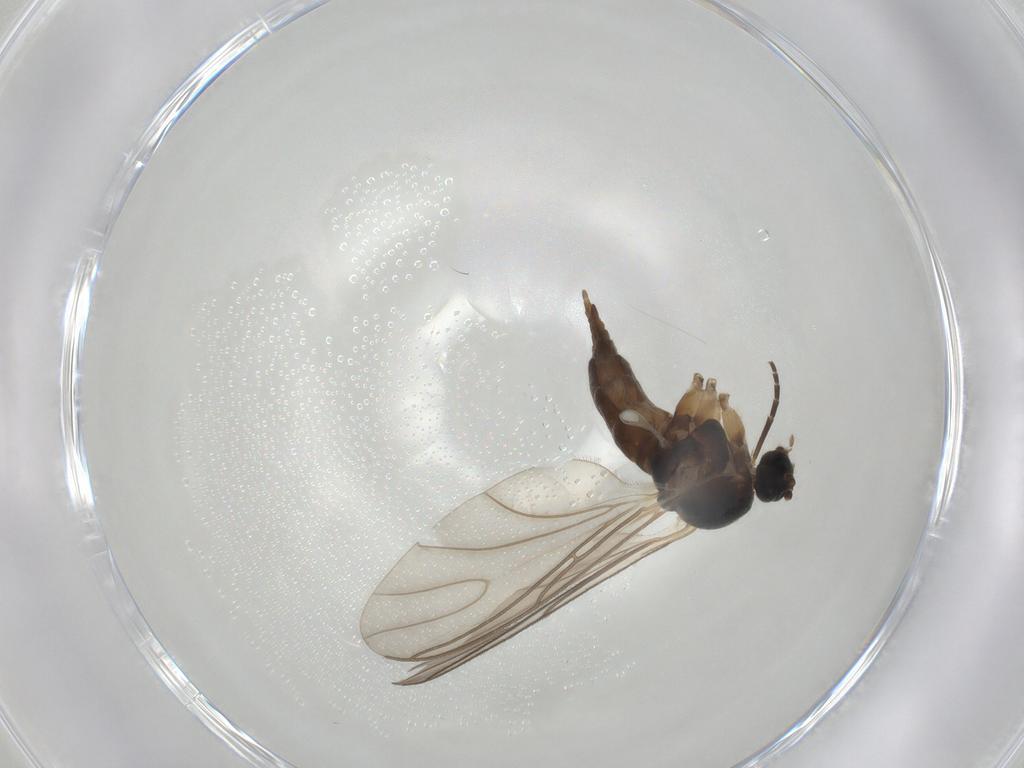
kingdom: Animalia
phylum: Arthropoda
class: Insecta
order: Diptera
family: Sciaridae
